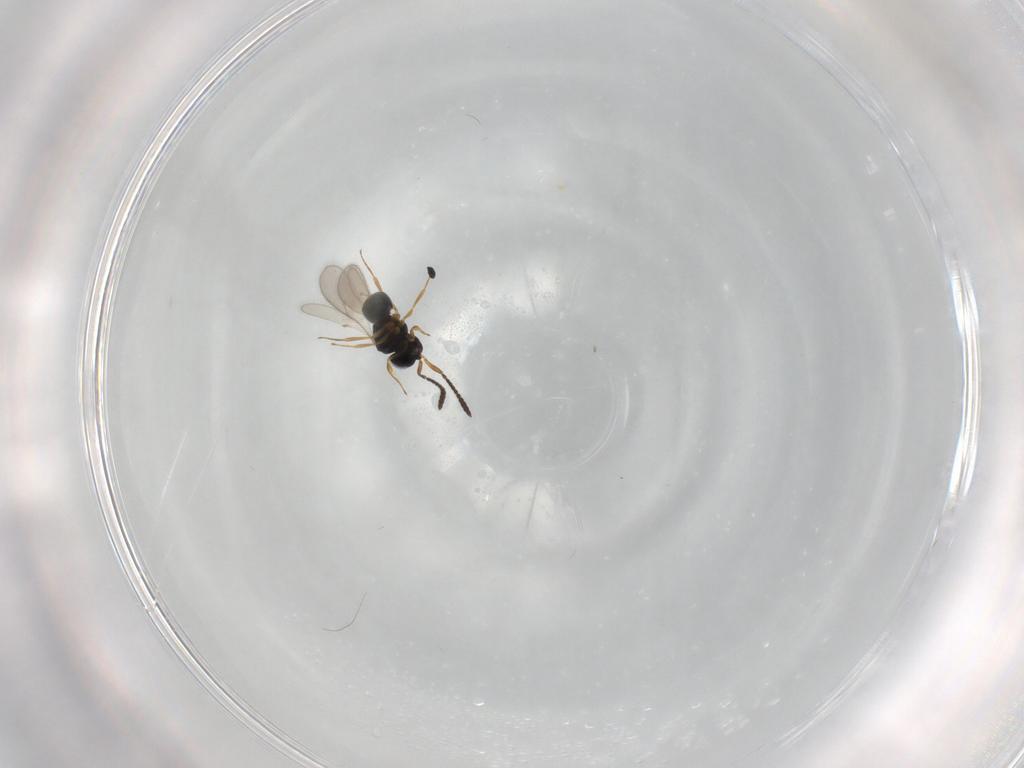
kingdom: Animalia
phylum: Arthropoda
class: Insecta
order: Hymenoptera
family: Scelionidae
